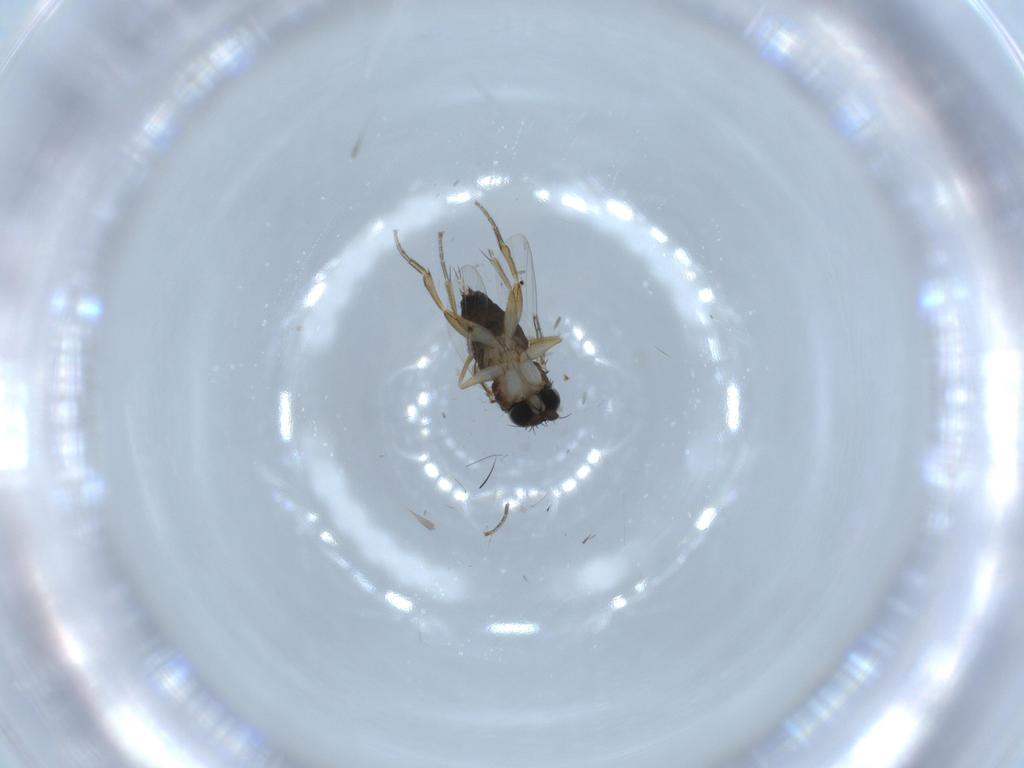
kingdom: Animalia
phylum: Arthropoda
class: Insecta
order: Diptera
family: Phoridae
